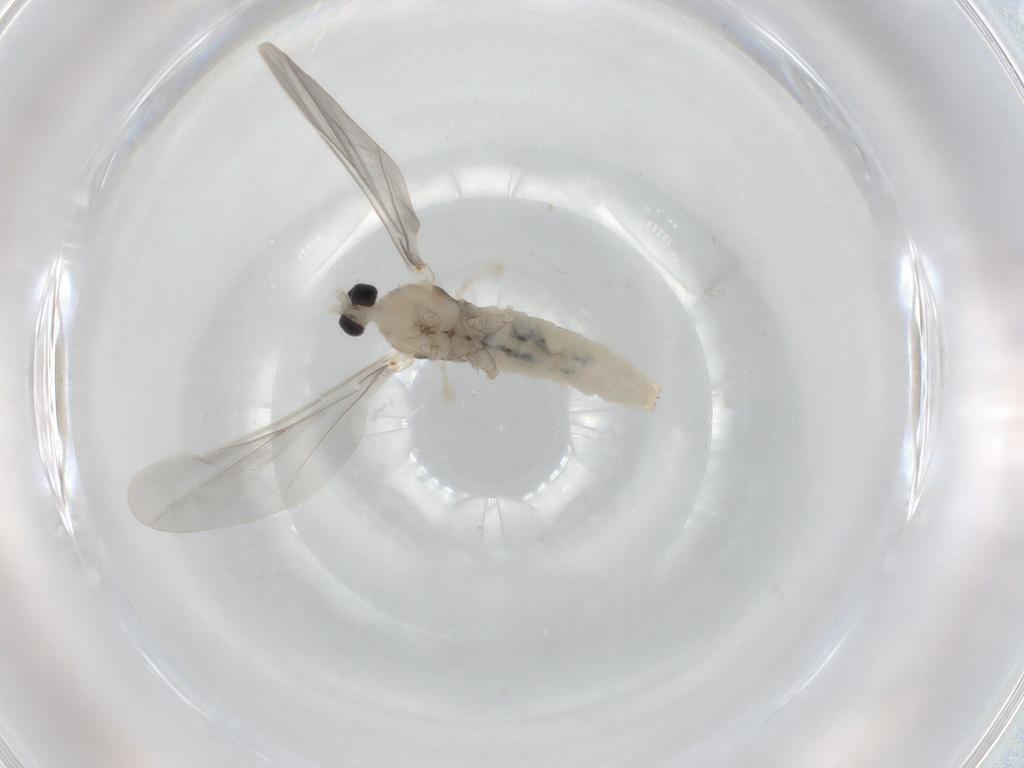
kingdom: Animalia
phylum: Arthropoda
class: Insecta
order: Diptera
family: Cecidomyiidae
